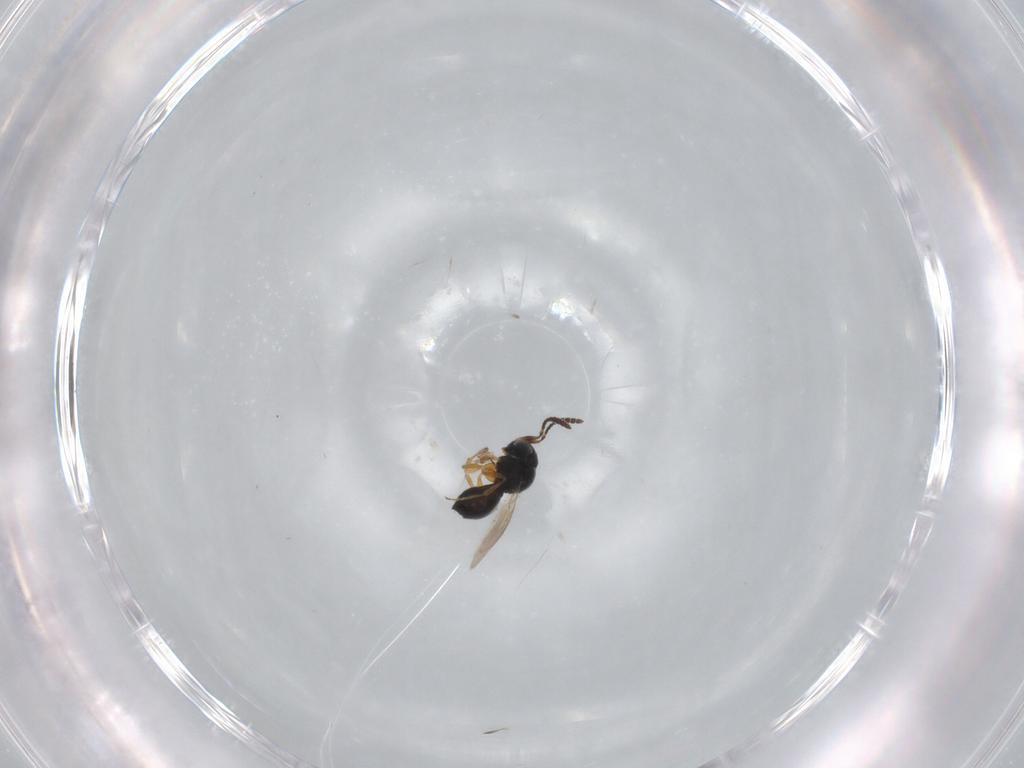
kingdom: Animalia
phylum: Arthropoda
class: Insecta
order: Hymenoptera
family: Scelionidae
